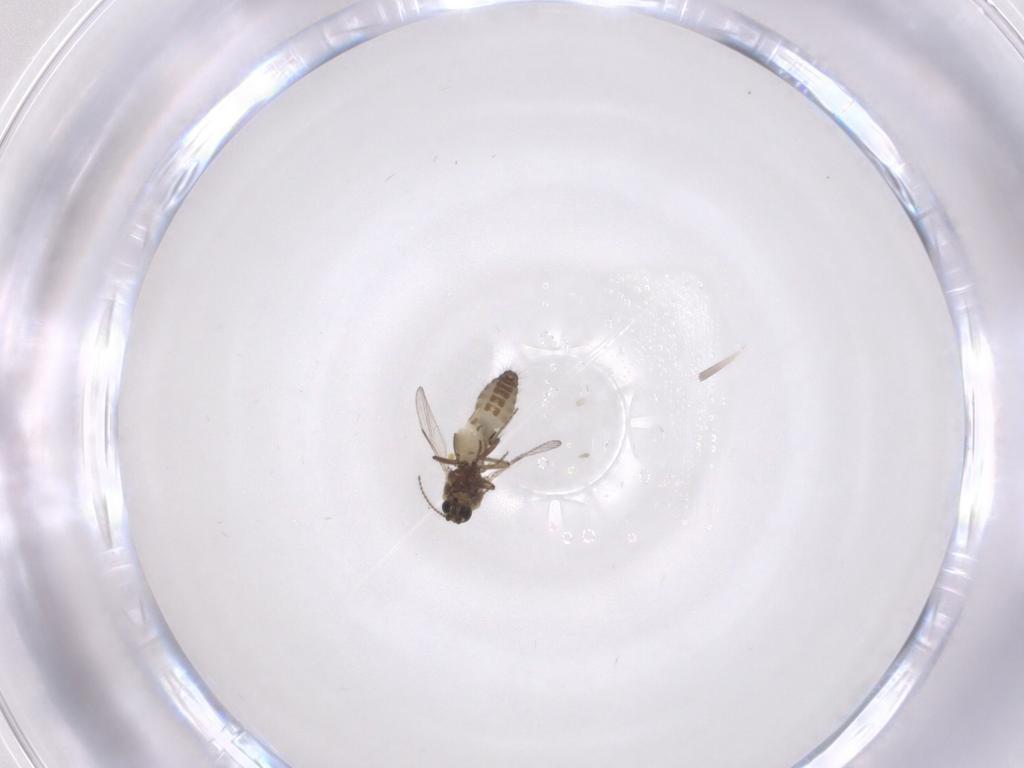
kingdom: Animalia
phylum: Arthropoda
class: Insecta
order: Diptera
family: Ceratopogonidae
